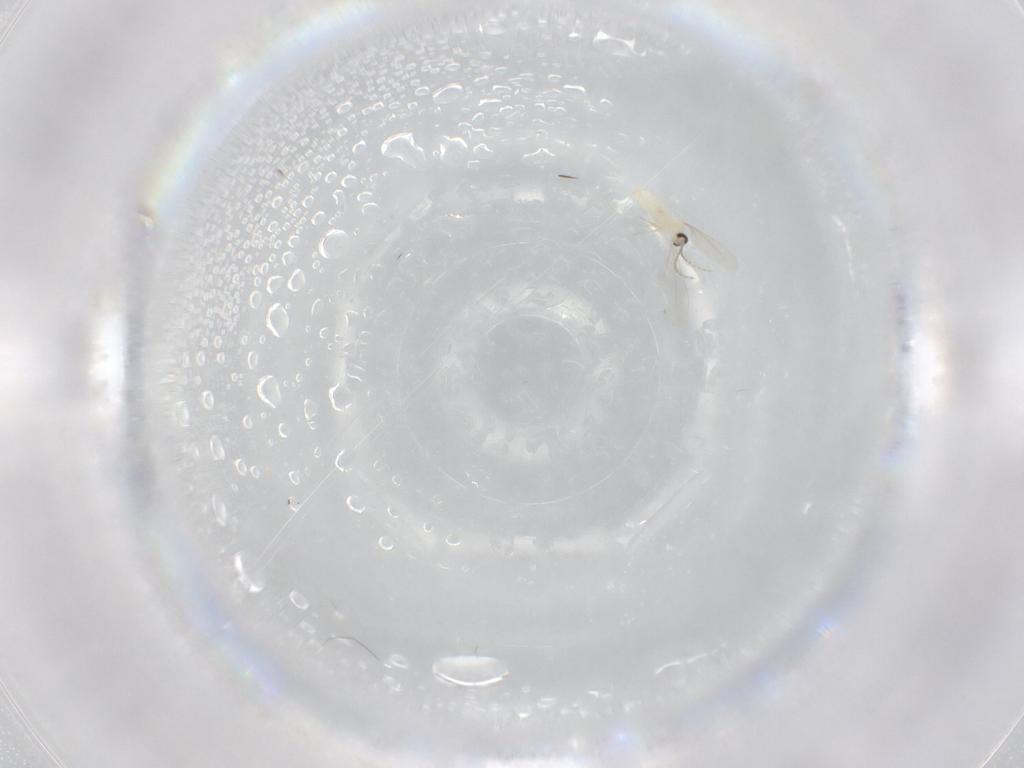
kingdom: Animalia
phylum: Arthropoda
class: Insecta
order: Diptera
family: Cecidomyiidae
